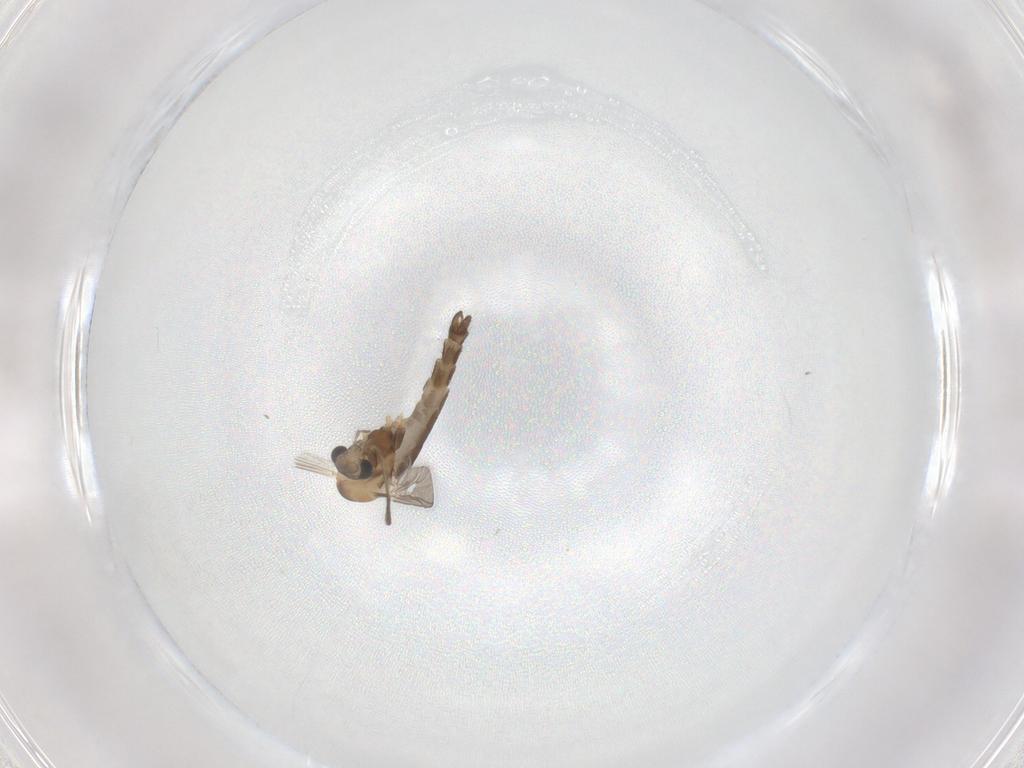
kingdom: Animalia
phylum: Arthropoda
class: Insecta
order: Diptera
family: Chironomidae
